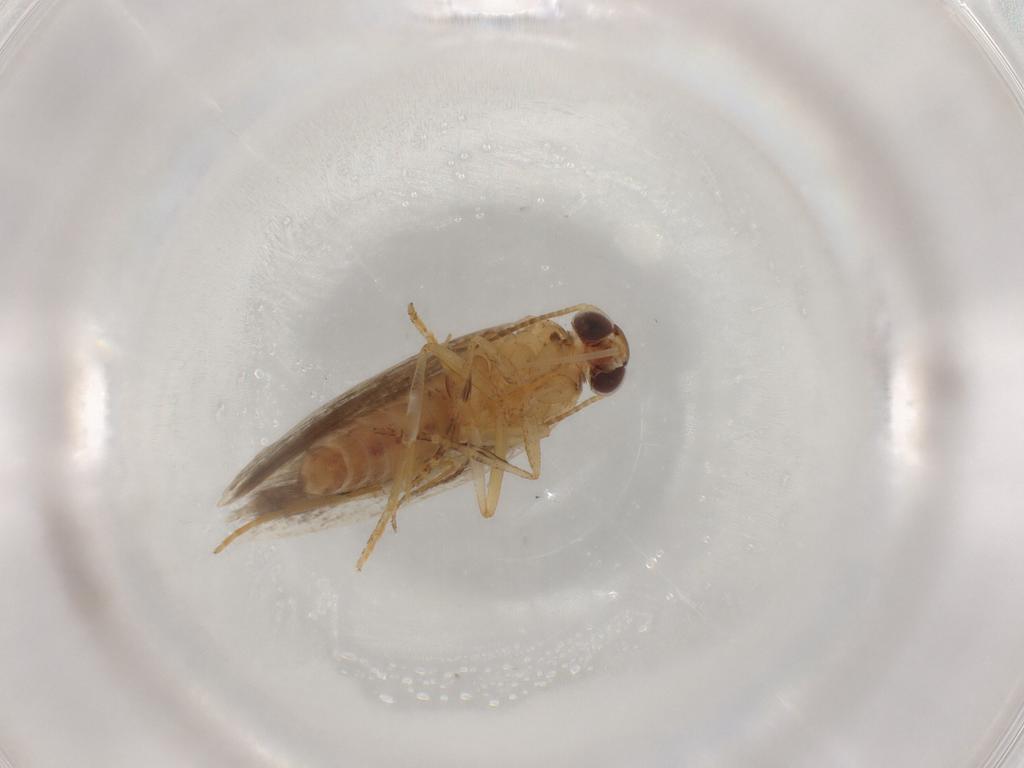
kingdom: Animalia
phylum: Arthropoda
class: Insecta
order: Lepidoptera
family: Gelechiidae
